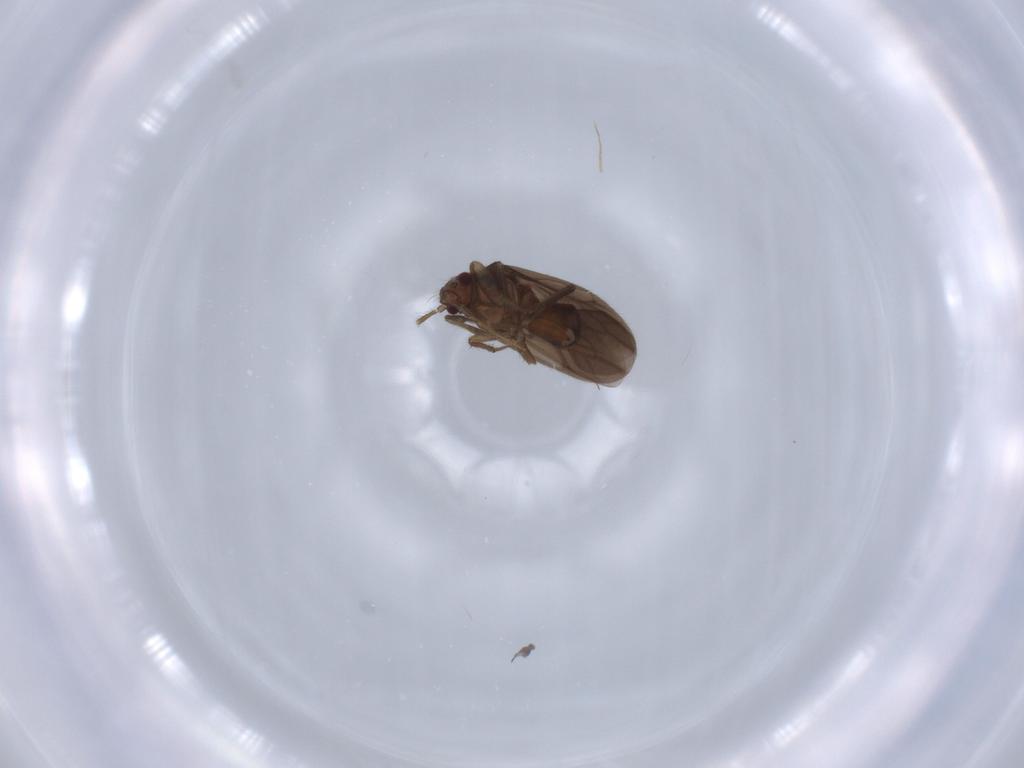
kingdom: Animalia
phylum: Arthropoda
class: Insecta
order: Hemiptera
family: Ceratocombidae
